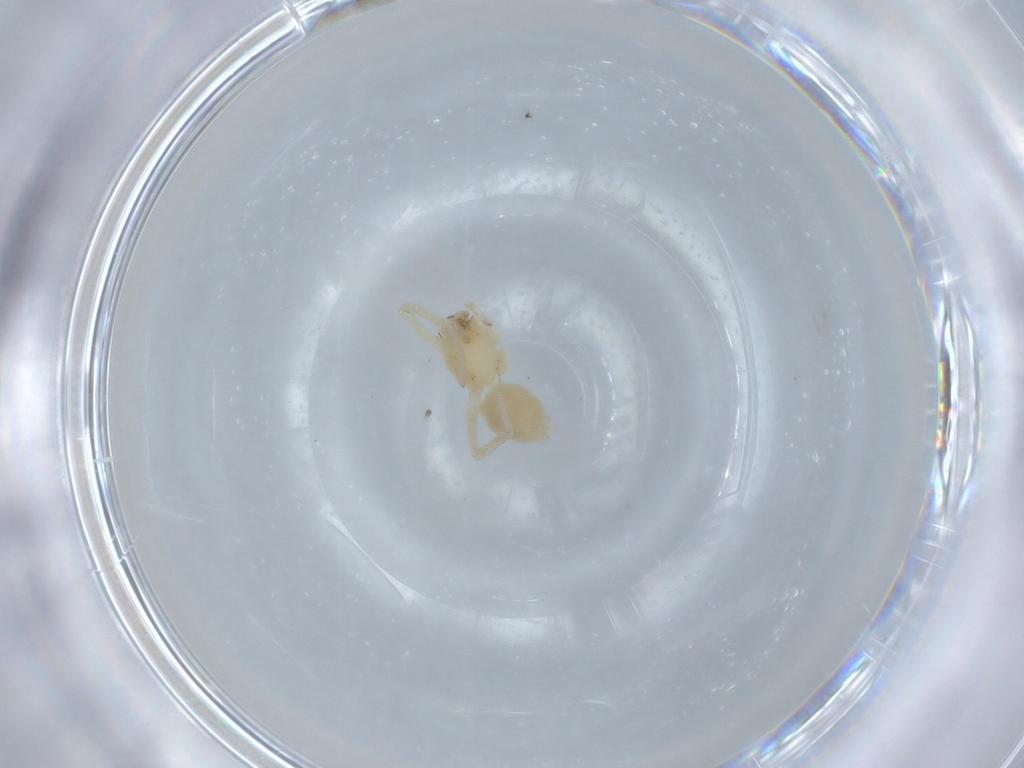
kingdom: Animalia
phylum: Arthropoda
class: Arachnida
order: Araneae
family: Anyphaenidae
